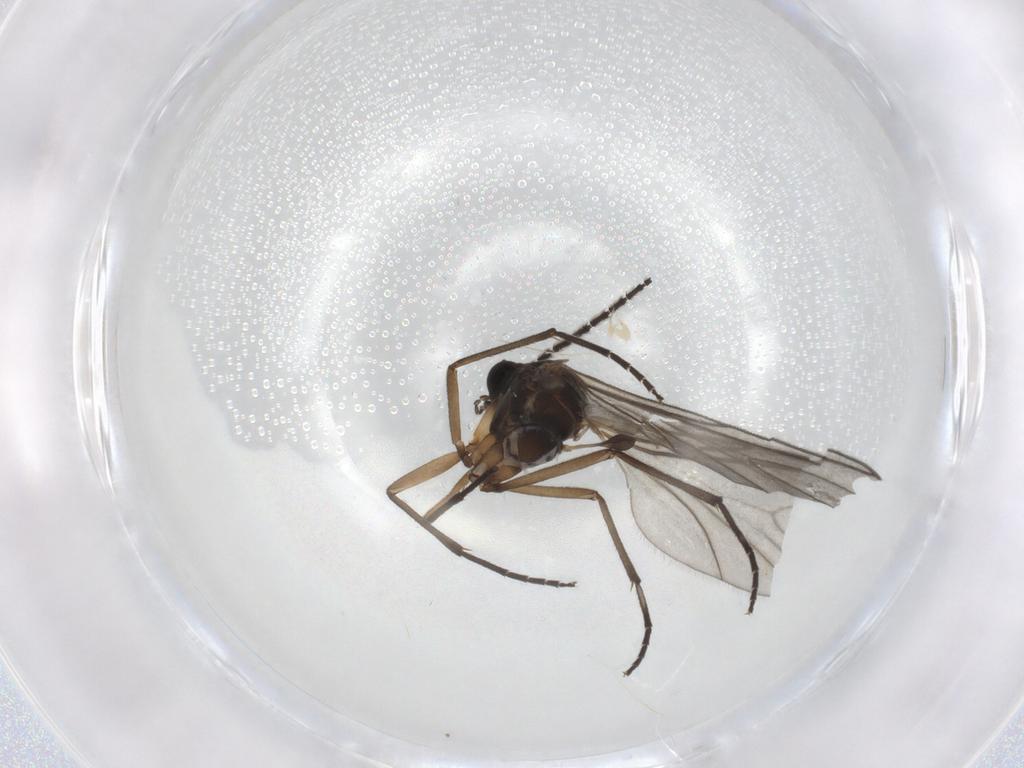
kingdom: Animalia
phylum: Arthropoda
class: Insecta
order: Diptera
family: Sciaridae
